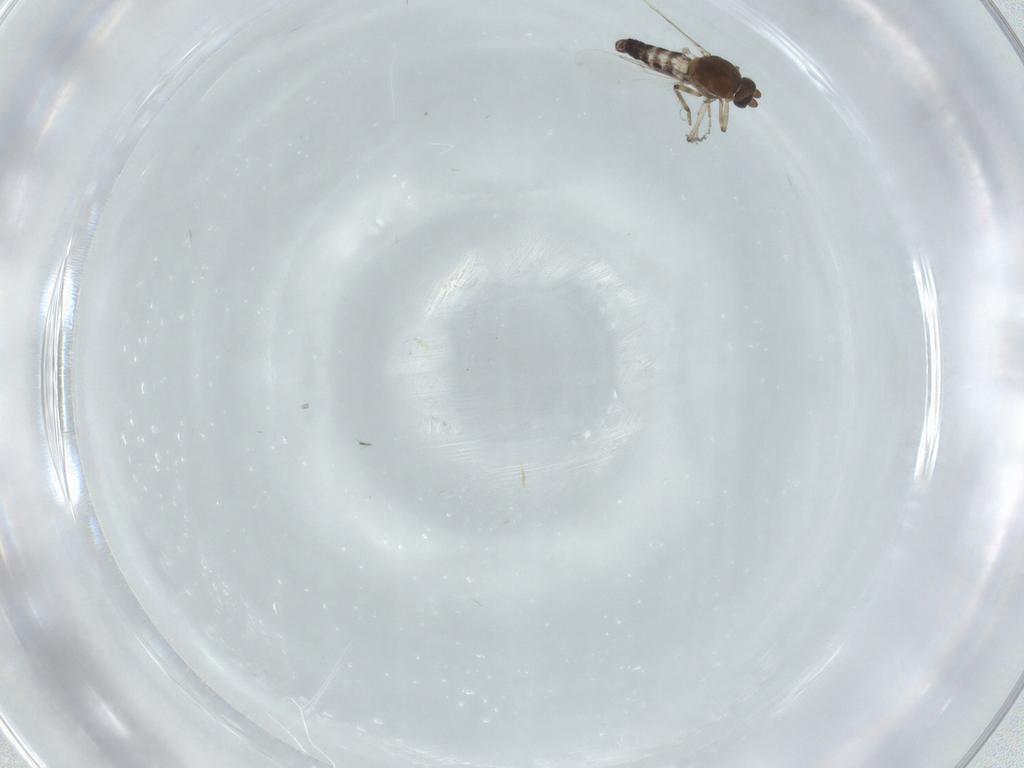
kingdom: Animalia
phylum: Arthropoda
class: Insecta
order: Diptera
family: Ceratopogonidae
